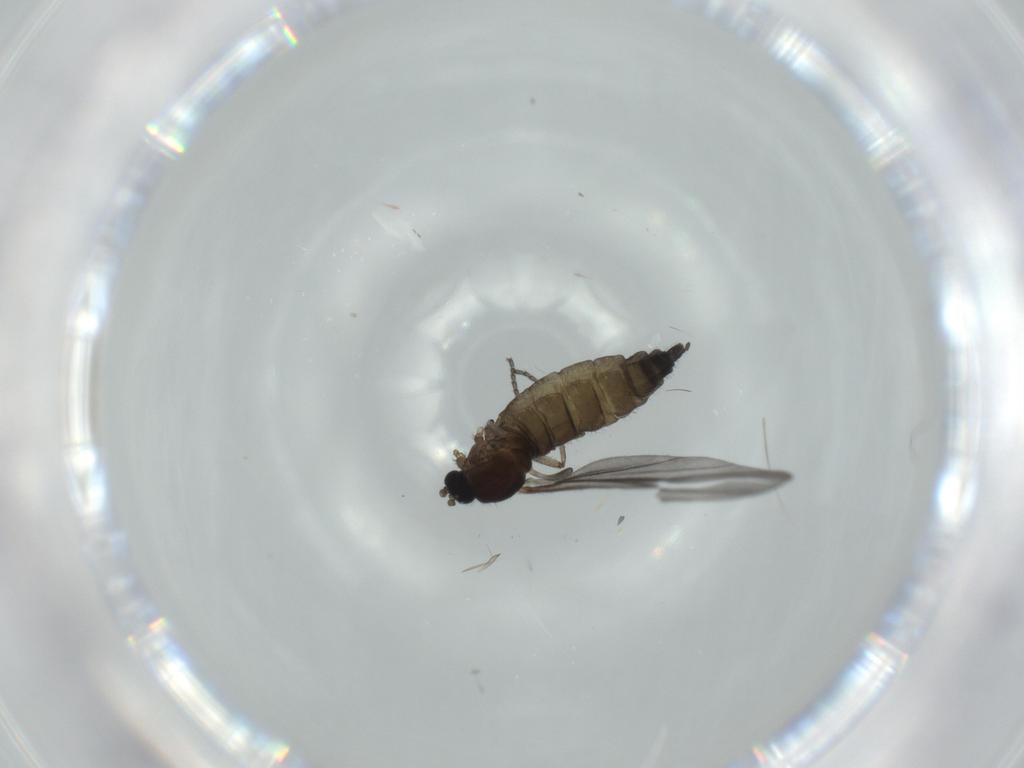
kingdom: Animalia
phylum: Arthropoda
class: Insecta
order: Diptera
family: Sciaridae
